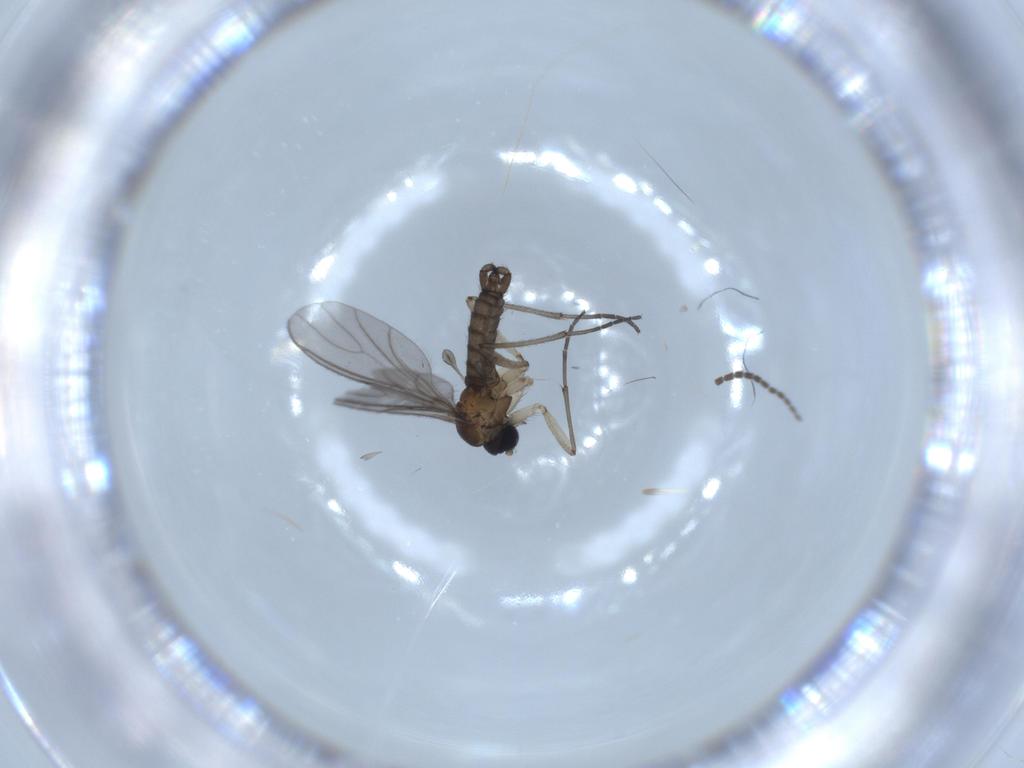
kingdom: Animalia
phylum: Arthropoda
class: Insecta
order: Diptera
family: Sciaridae
